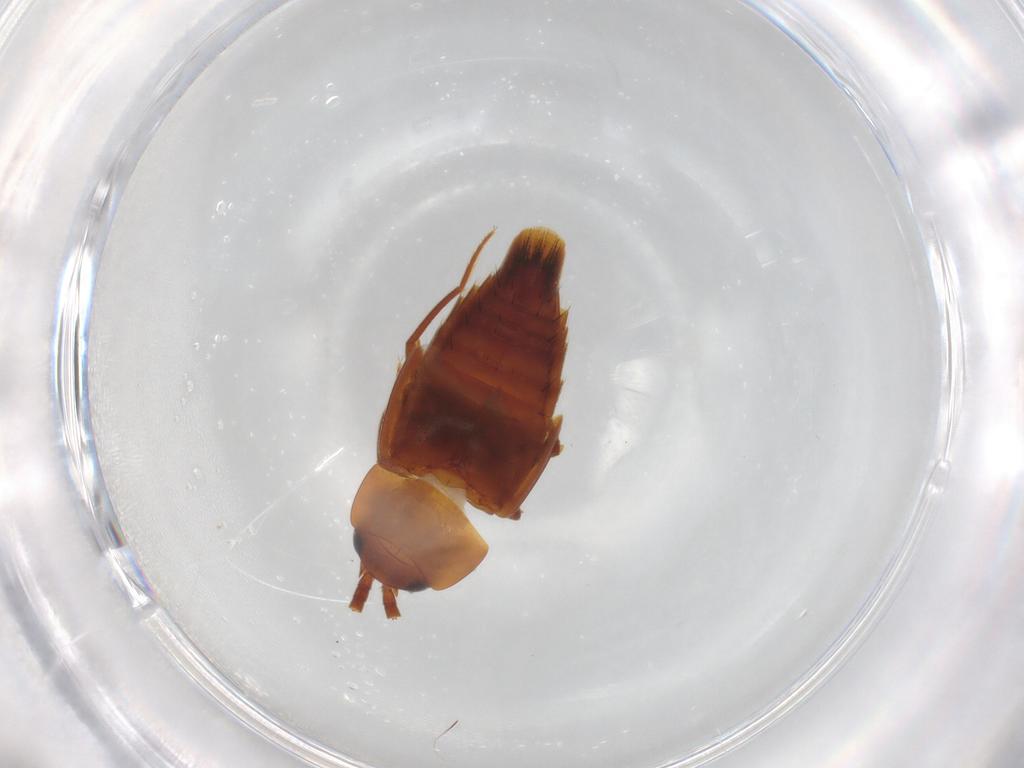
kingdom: Animalia
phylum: Arthropoda
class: Insecta
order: Coleoptera
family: Staphylinidae
